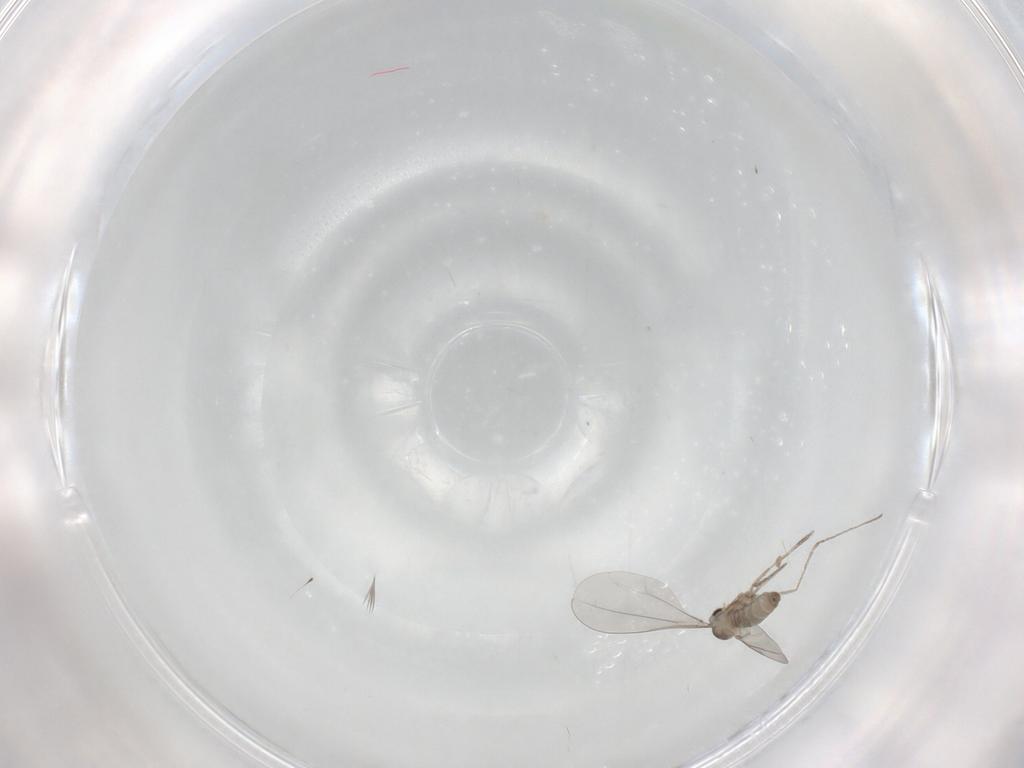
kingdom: Animalia
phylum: Arthropoda
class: Insecta
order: Diptera
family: Cecidomyiidae
